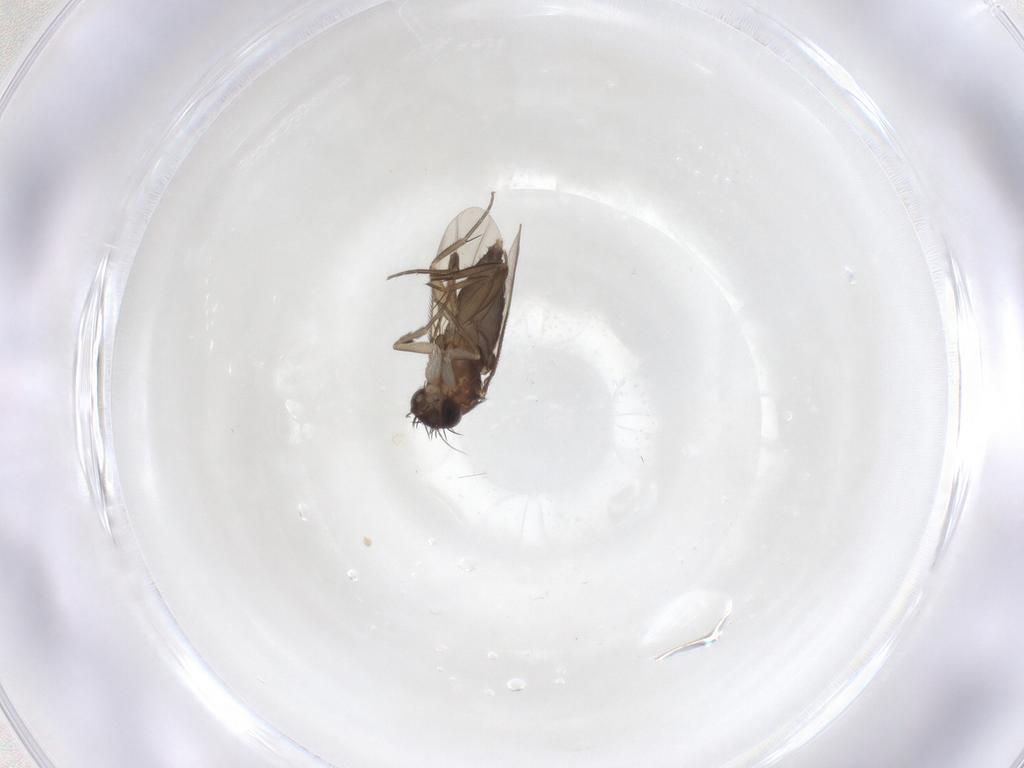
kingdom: Animalia
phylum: Arthropoda
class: Insecta
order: Diptera
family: Phoridae
